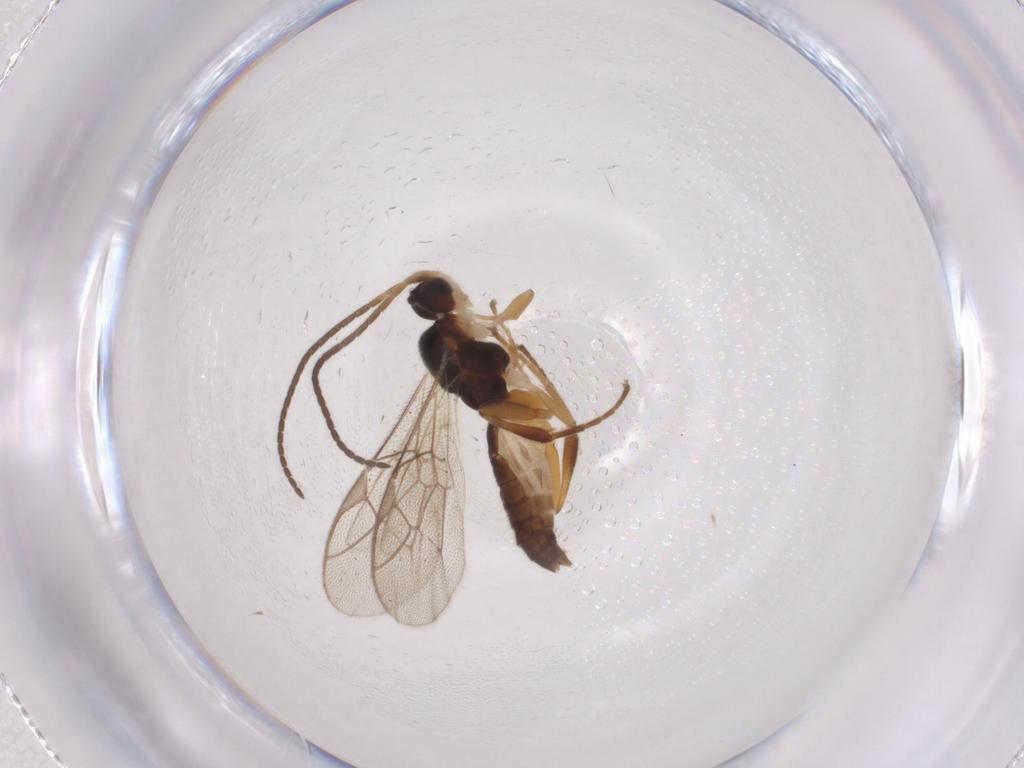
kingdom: Animalia
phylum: Arthropoda
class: Insecta
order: Hymenoptera
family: Ichneumonidae
